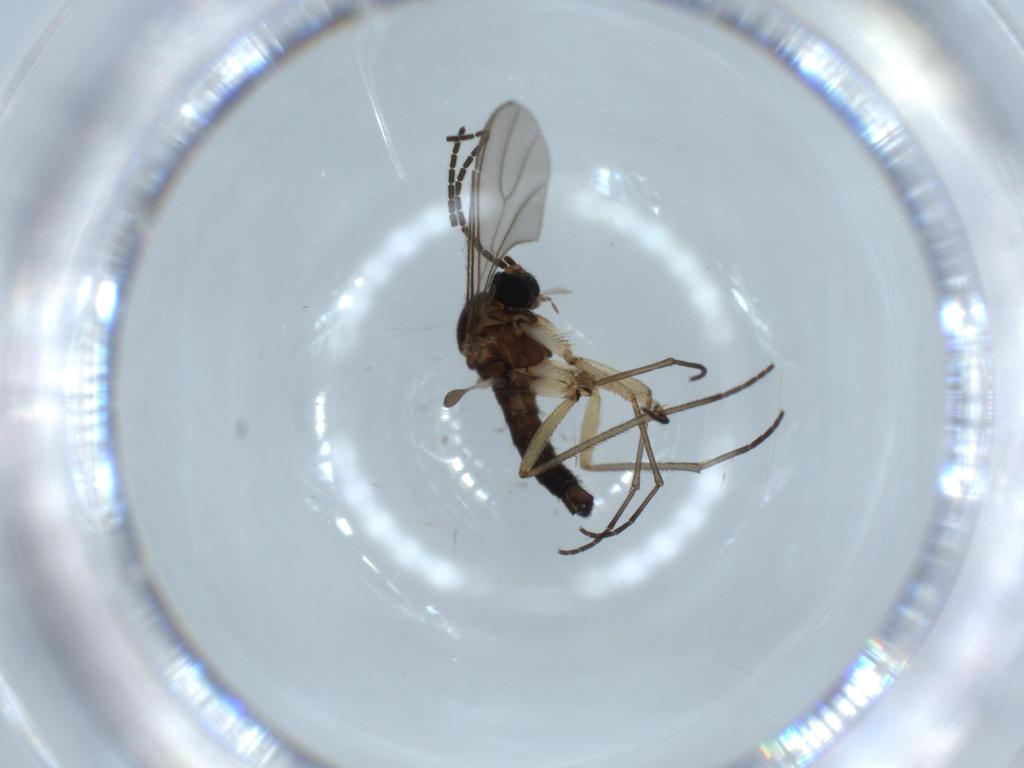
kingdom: Animalia
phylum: Arthropoda
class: Insecta
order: Diptera
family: Sciaridae
